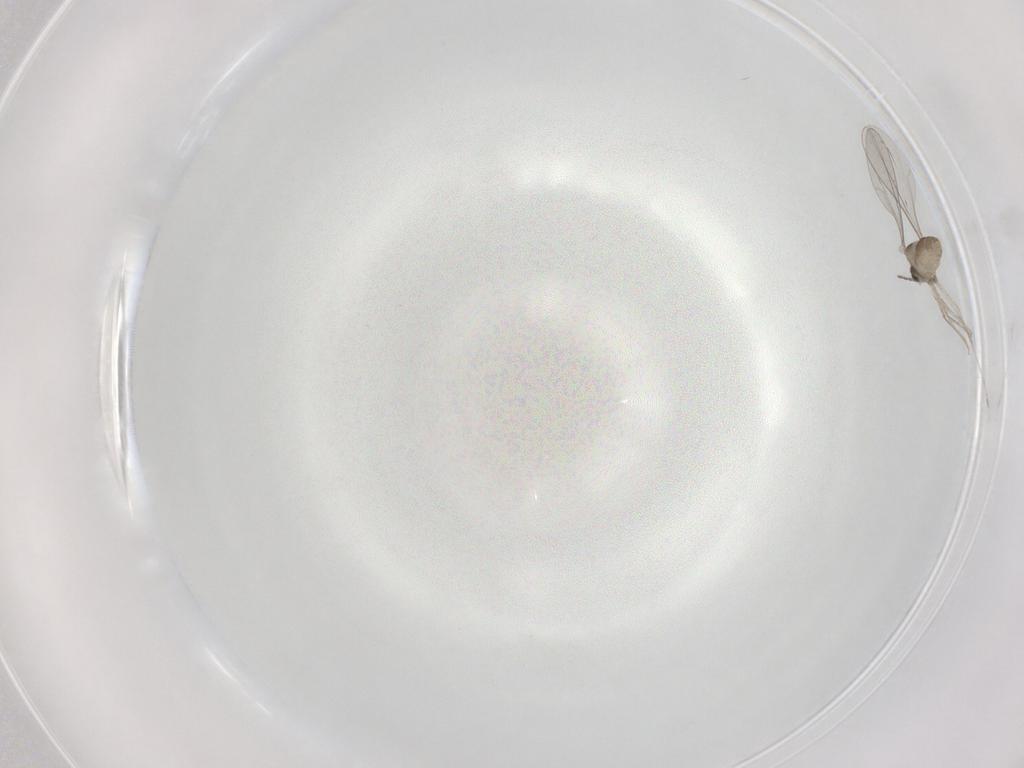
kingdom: Animalia
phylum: Arthropoda
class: Insecta
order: Diptera
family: Cecidomyiidae
